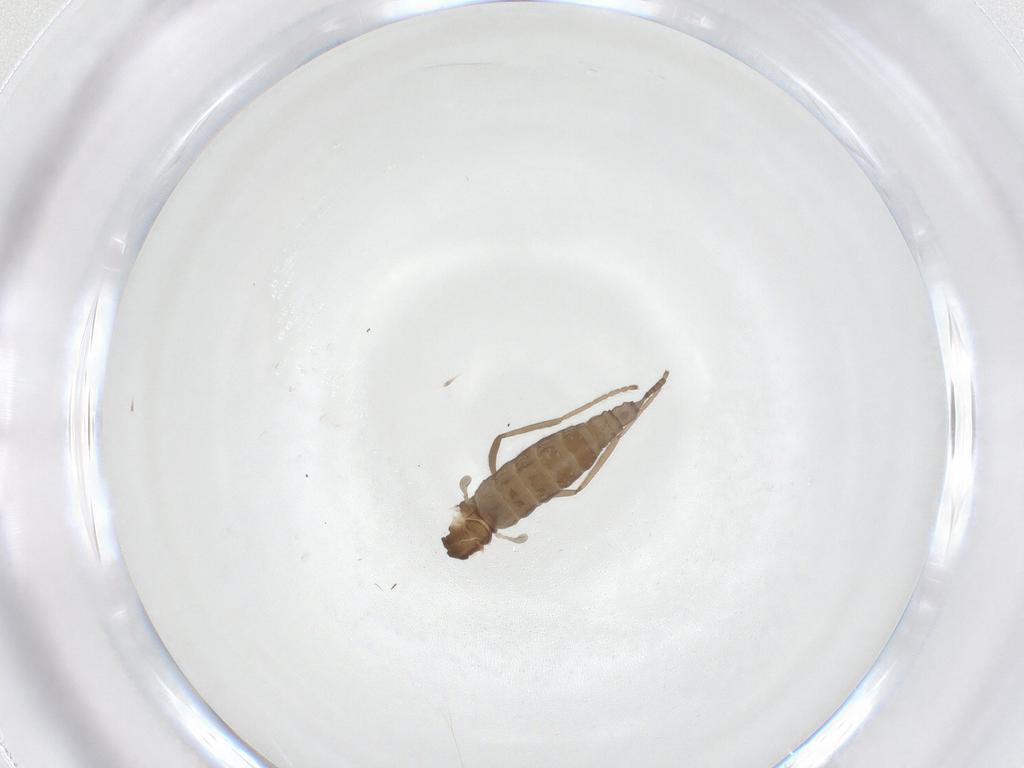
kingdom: Animalia
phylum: Arthropoda
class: Insecta
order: Diptera
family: Cecidomyiidae
